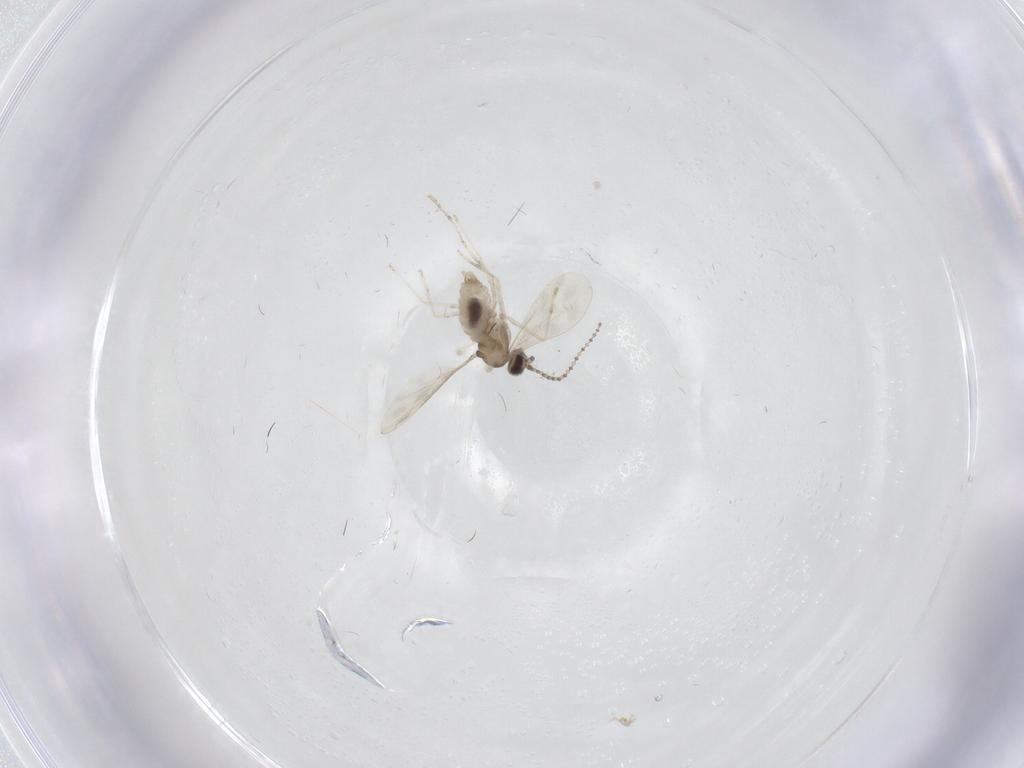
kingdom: Animalia
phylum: Arthropoda
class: Insecta
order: Diptera
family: Cecidomyiidae
